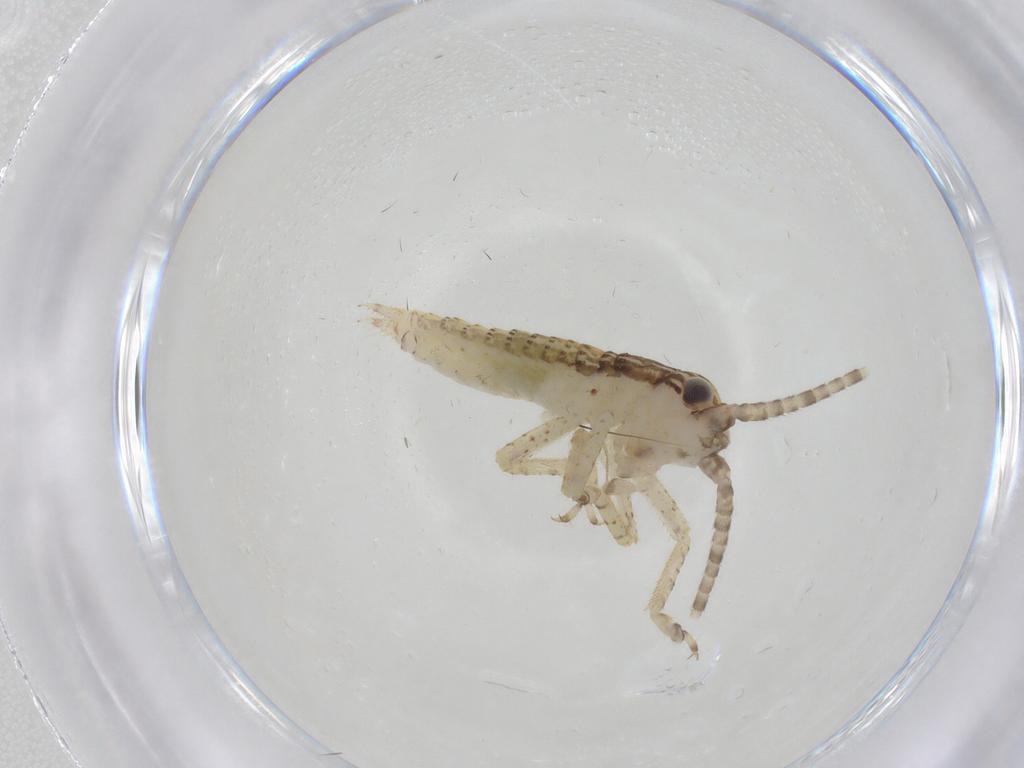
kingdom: Animalia
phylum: Arthropoda
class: Insecta
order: Orthoptera
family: Gryllidae
